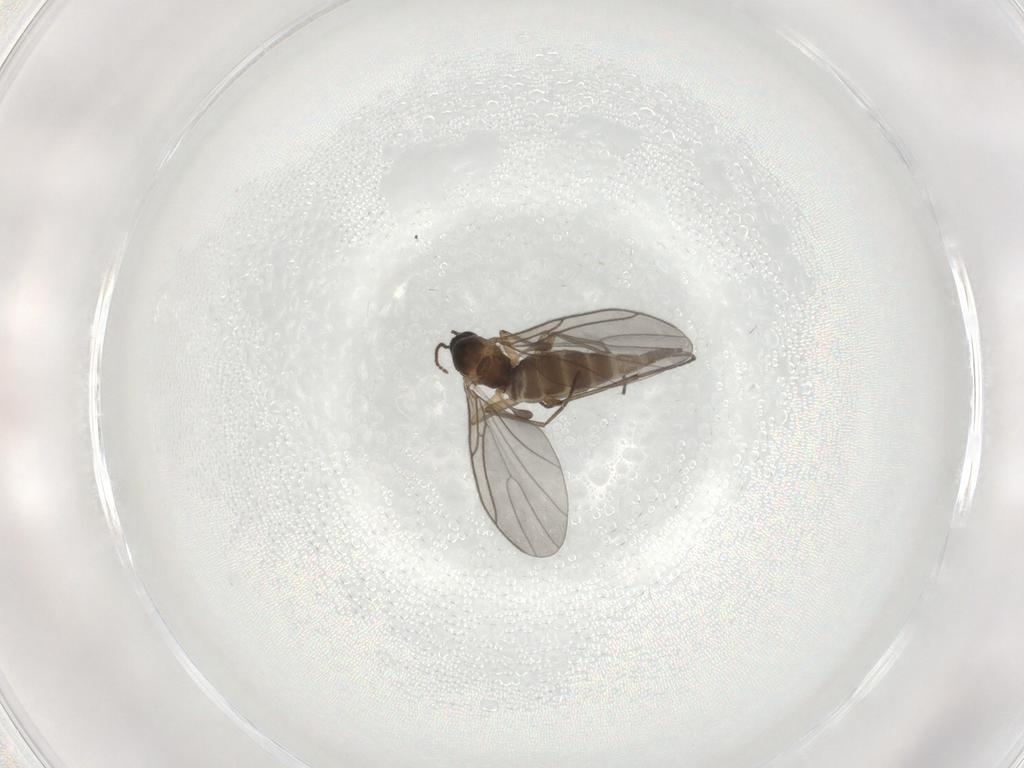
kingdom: Animalia
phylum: Arthropoda
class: Insecta
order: Diptera
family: Sciaridae
